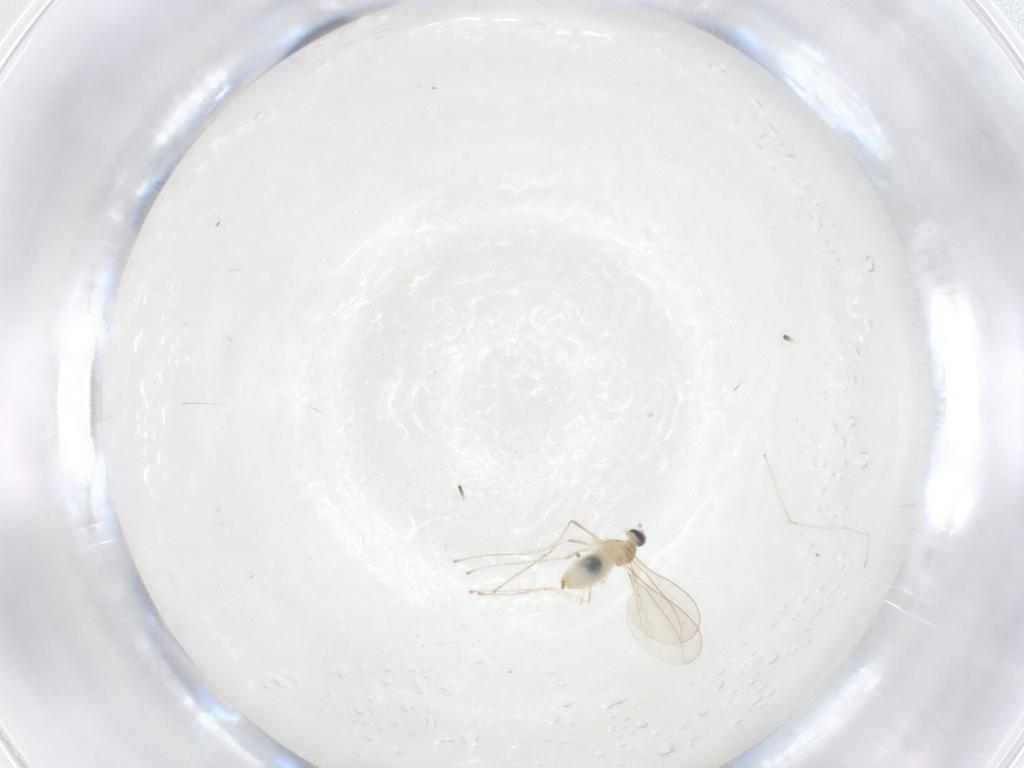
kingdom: Animalia
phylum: Arthropoda
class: Insecta
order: Diptera
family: Cecidomyiidae
